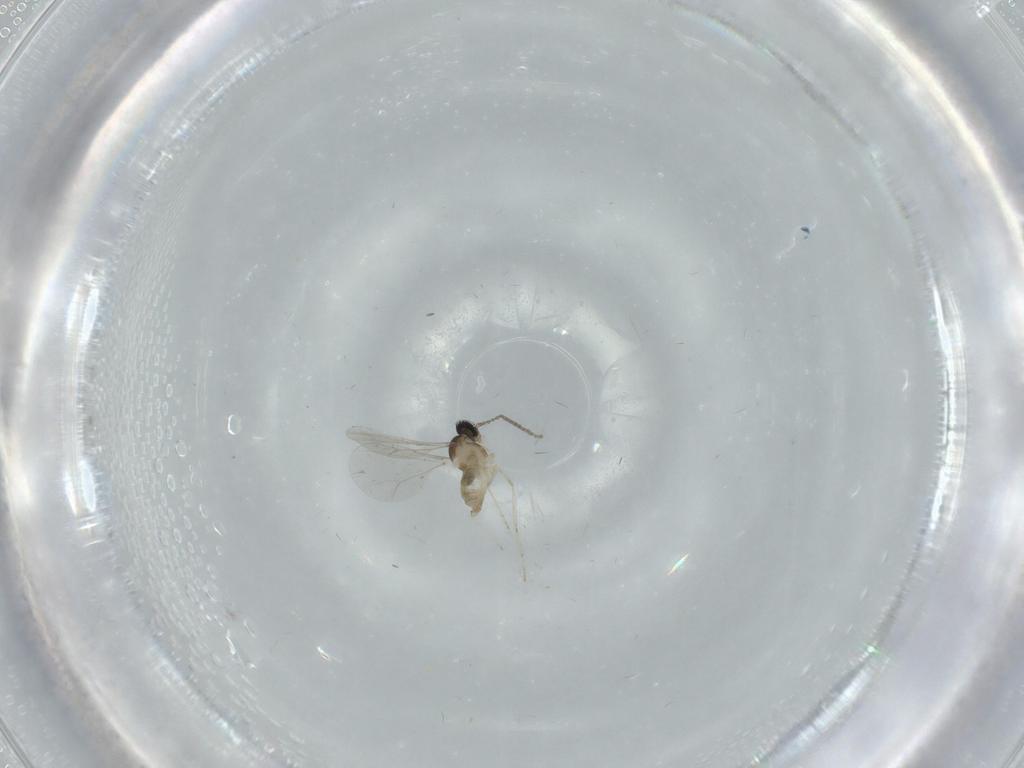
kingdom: Animalia
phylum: Arthropoda
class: Insecta
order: Diptera
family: Cecidomyiidae
